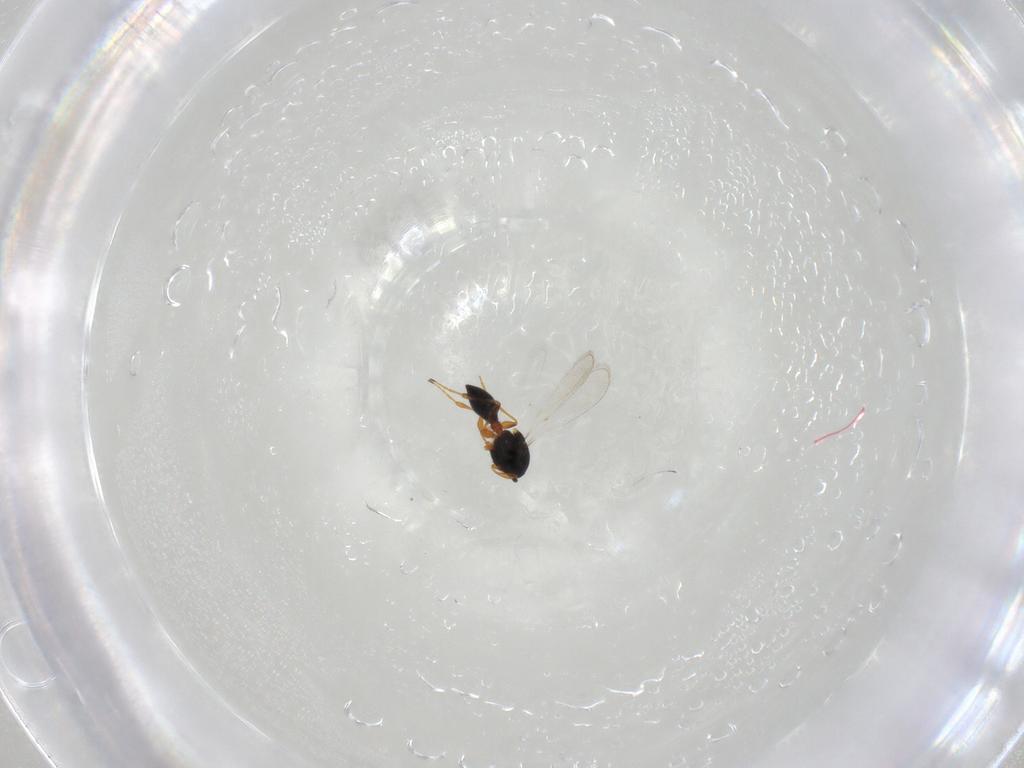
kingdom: Animalia
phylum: Arthropoda
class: Insecta
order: Hymenoptera
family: Platygastridae
